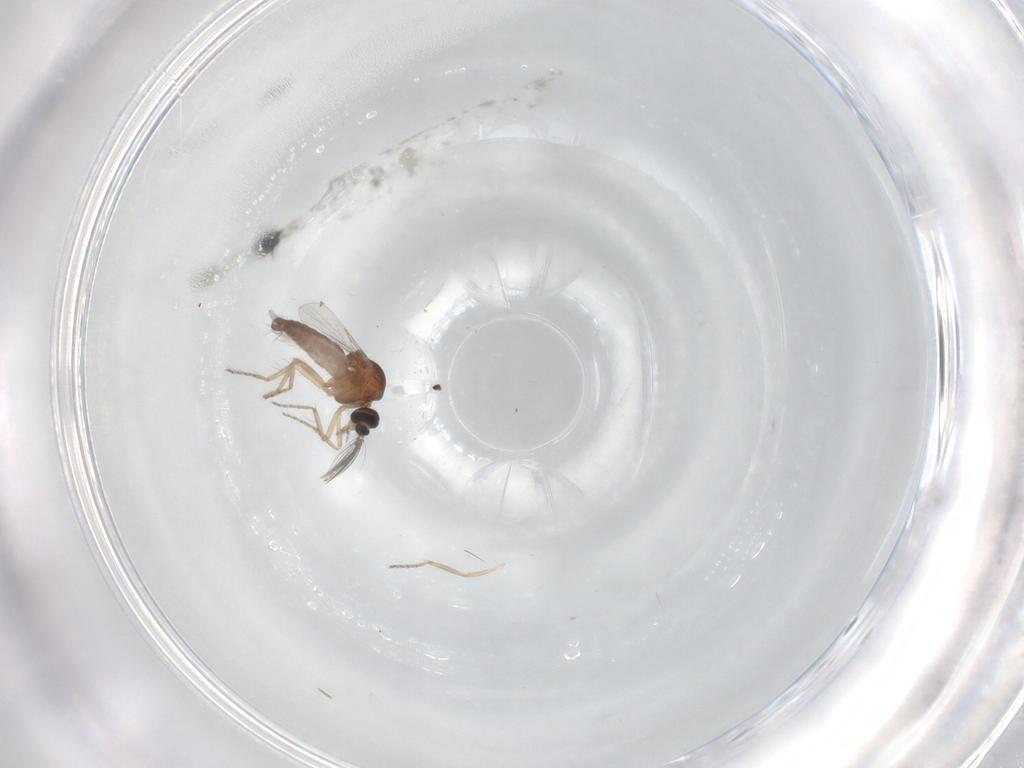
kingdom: Animalia
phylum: Arthropoda
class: Insecta
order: Diptera
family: Ceratopogonidae
